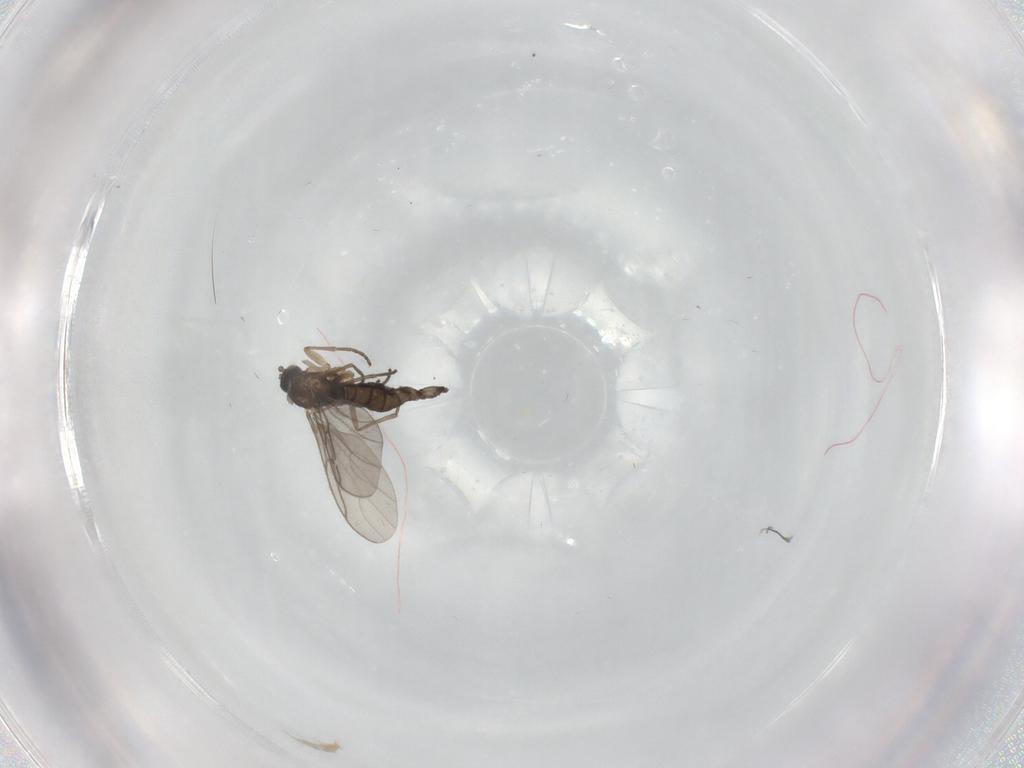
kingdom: Animalia
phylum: Arthropoda
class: Insecta
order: Diptera
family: Sciaridae
